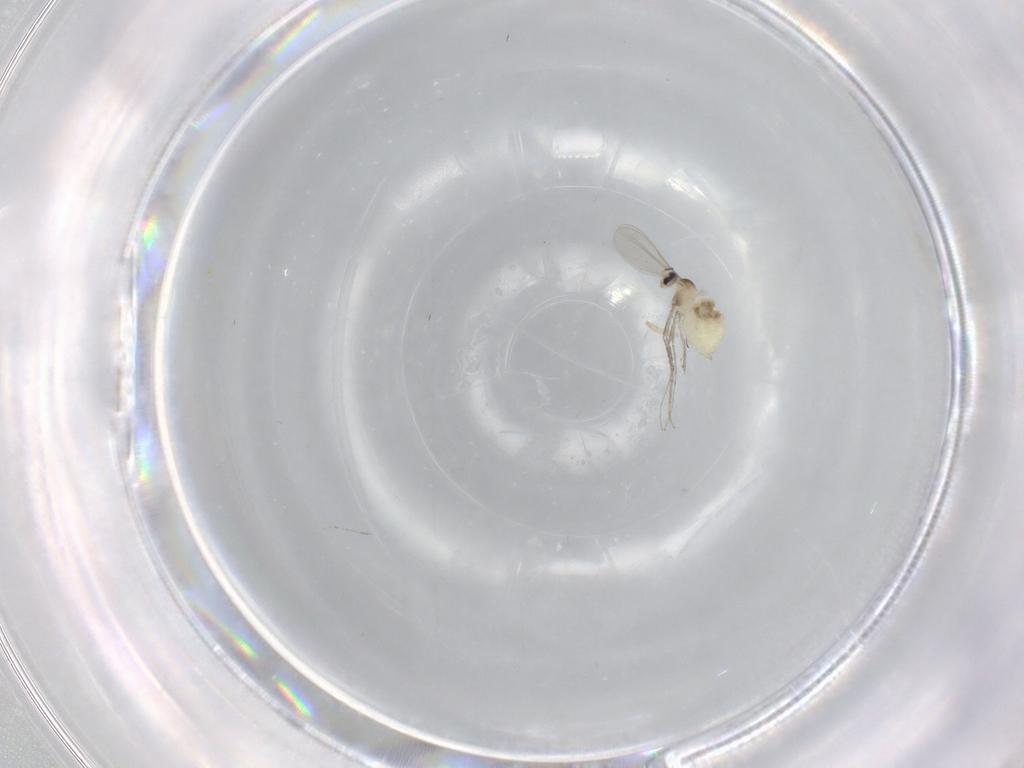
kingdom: Animalia
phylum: Arthropoda
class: Insecta
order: Diptera
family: Cecidomyiidae
